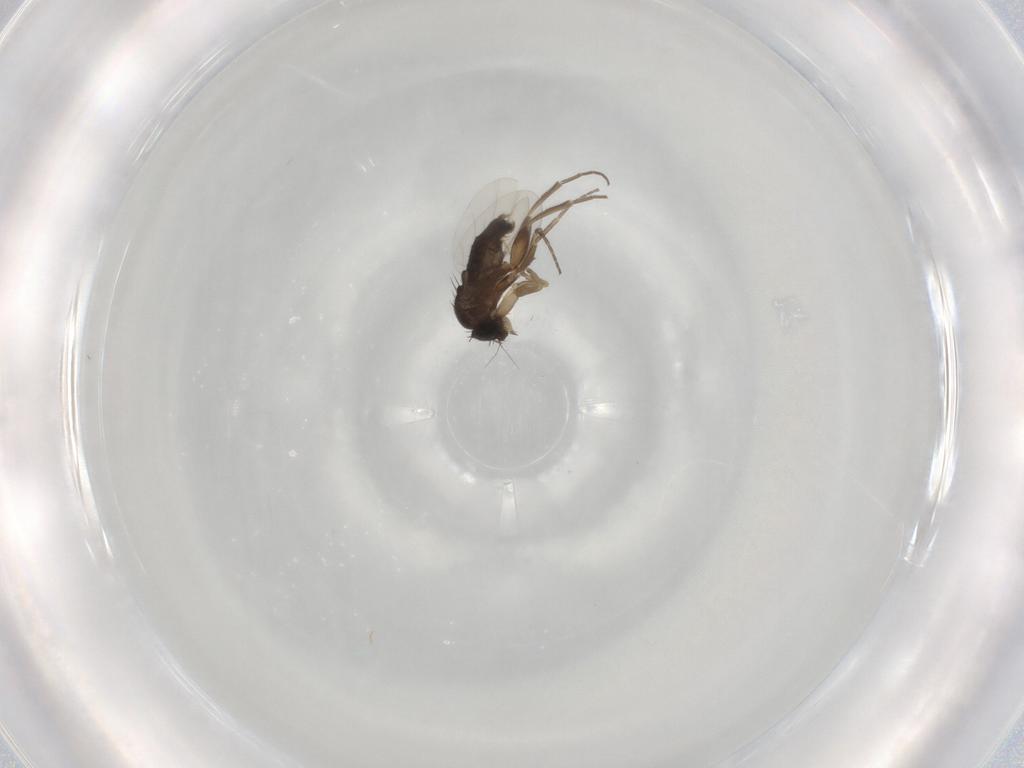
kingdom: Animalia
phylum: Arthropoda
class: Insecta
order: Diptera
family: Phoridae
